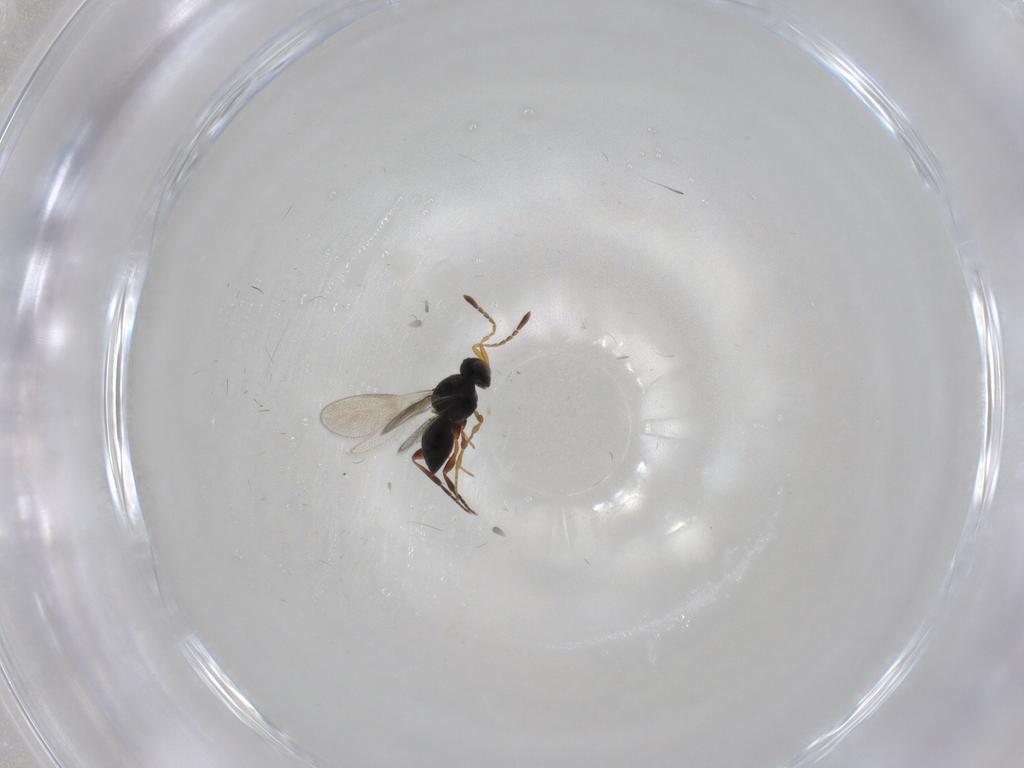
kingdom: Animalia
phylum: Arthropoda
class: Insecta
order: Hymenoptera
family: Platygastridae
